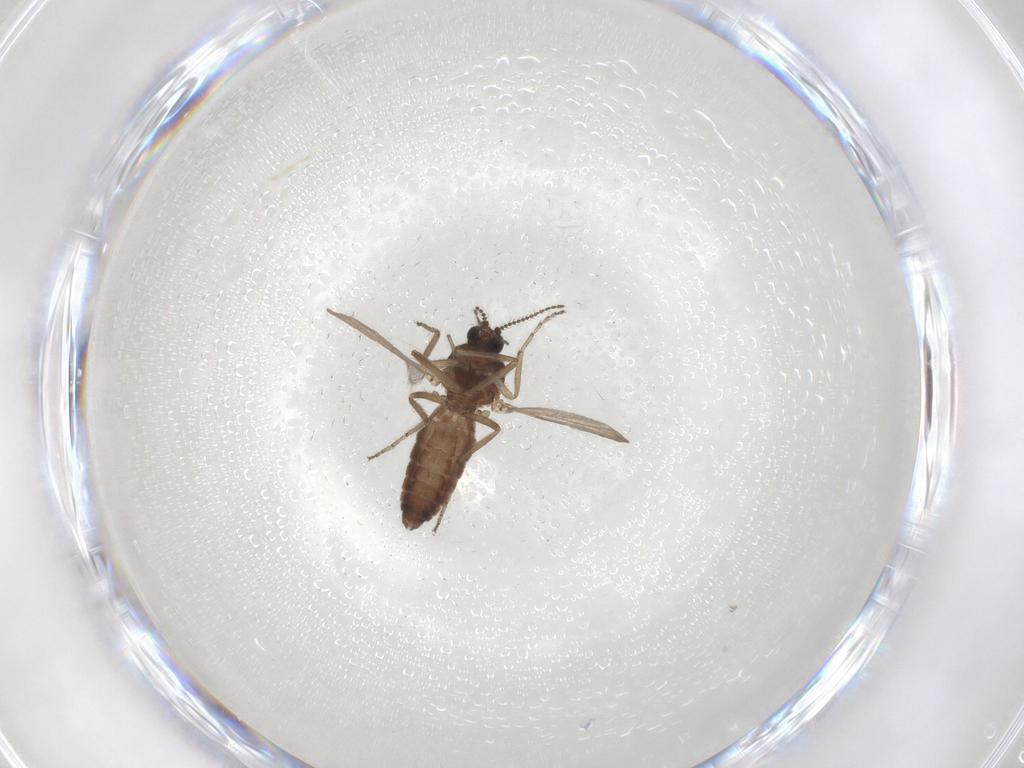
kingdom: Animalia
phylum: Arthropoda
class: Insecta
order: Diptera
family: Ceratopogonidae
